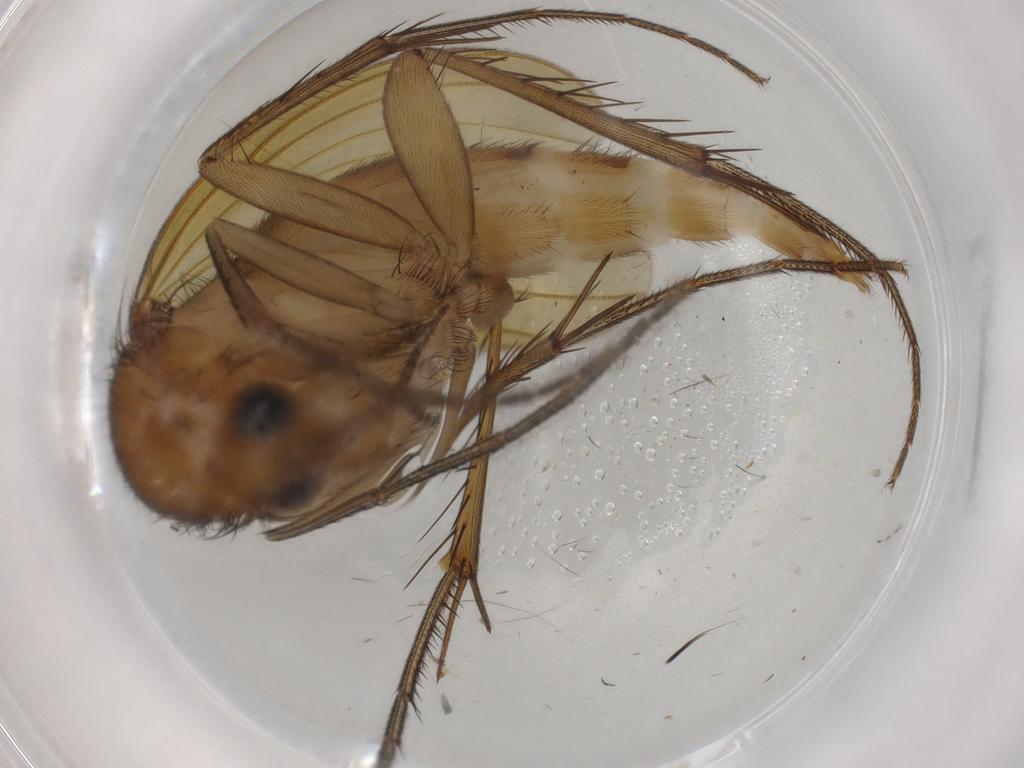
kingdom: Animalia
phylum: Arthropoda
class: Insecta
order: Diptera
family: Mycetophilidae
